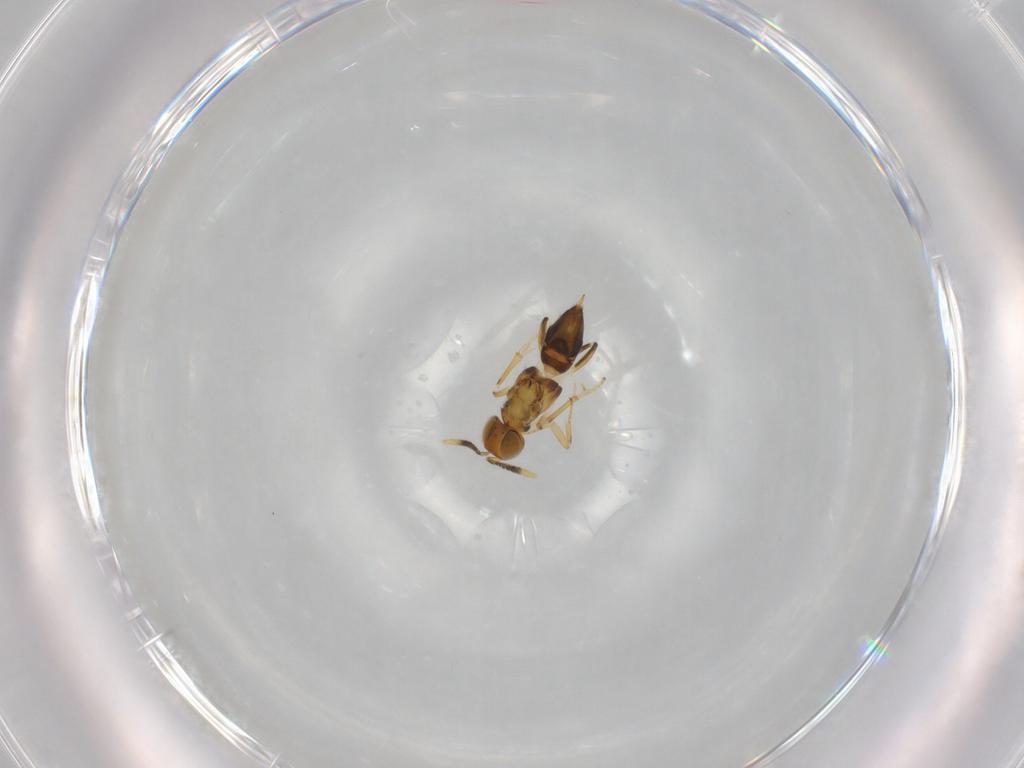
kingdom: Animalia
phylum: Arthropoda
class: Insecta
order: Hymenoptera
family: Encyrtidae
